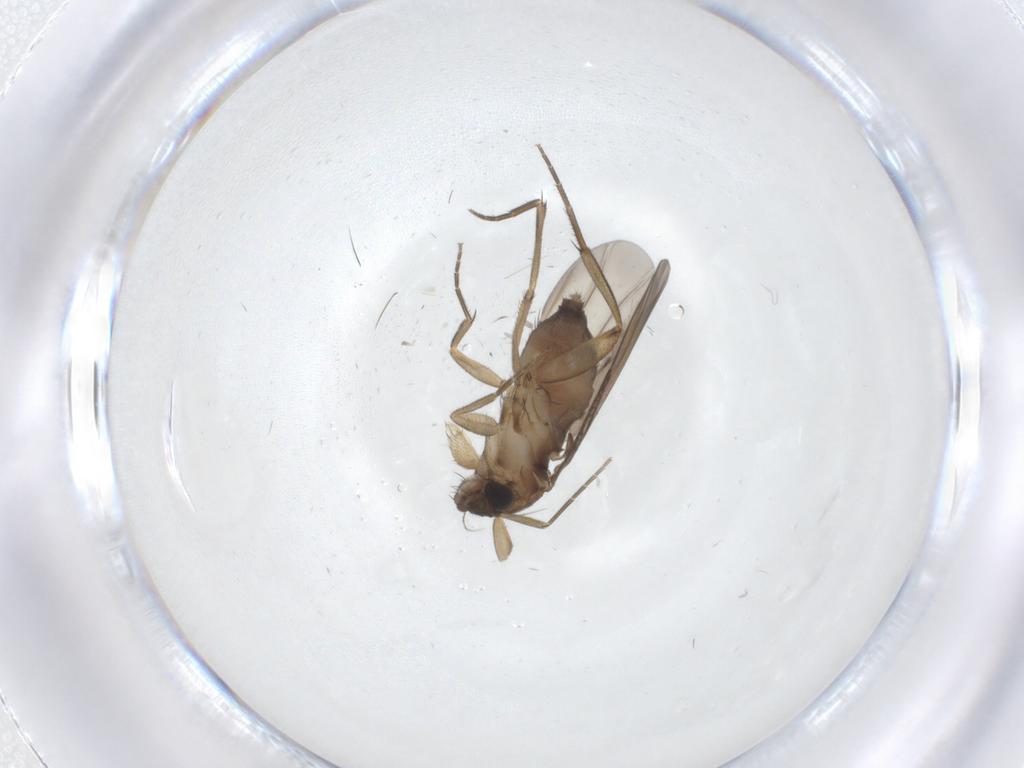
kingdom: Animalia
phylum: Arthropoda
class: Insecta
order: Diptera
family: Phoridae
